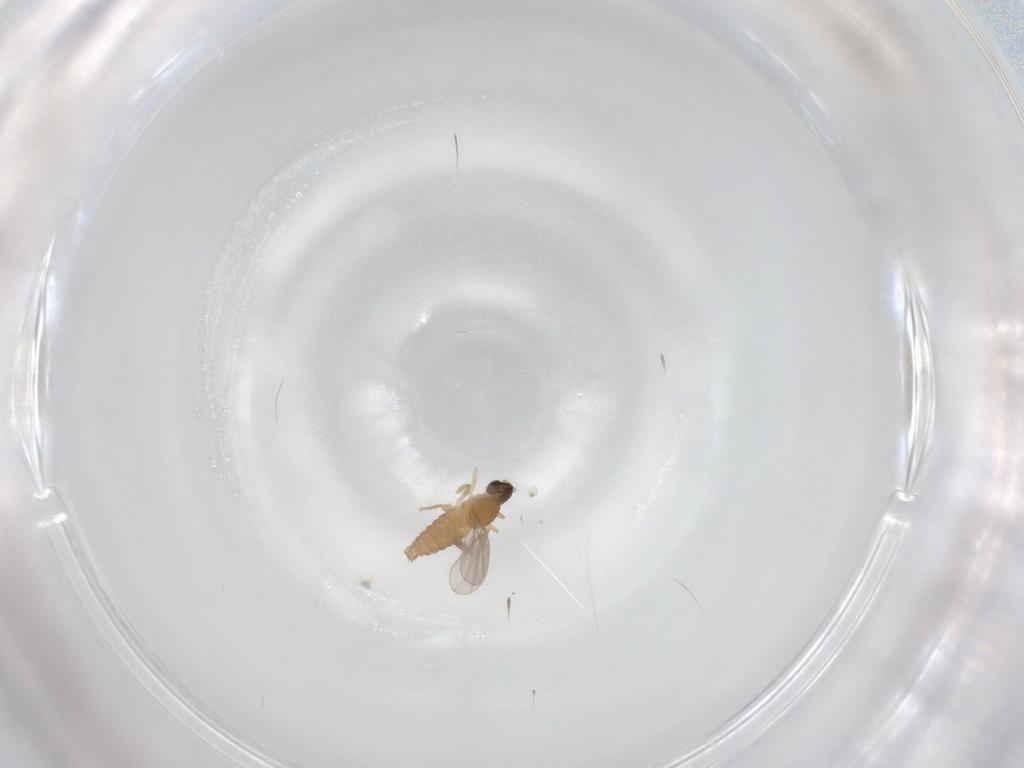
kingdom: Animalia
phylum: Arthropoda
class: Insecta
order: Diptera
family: Cecidomyiidae
